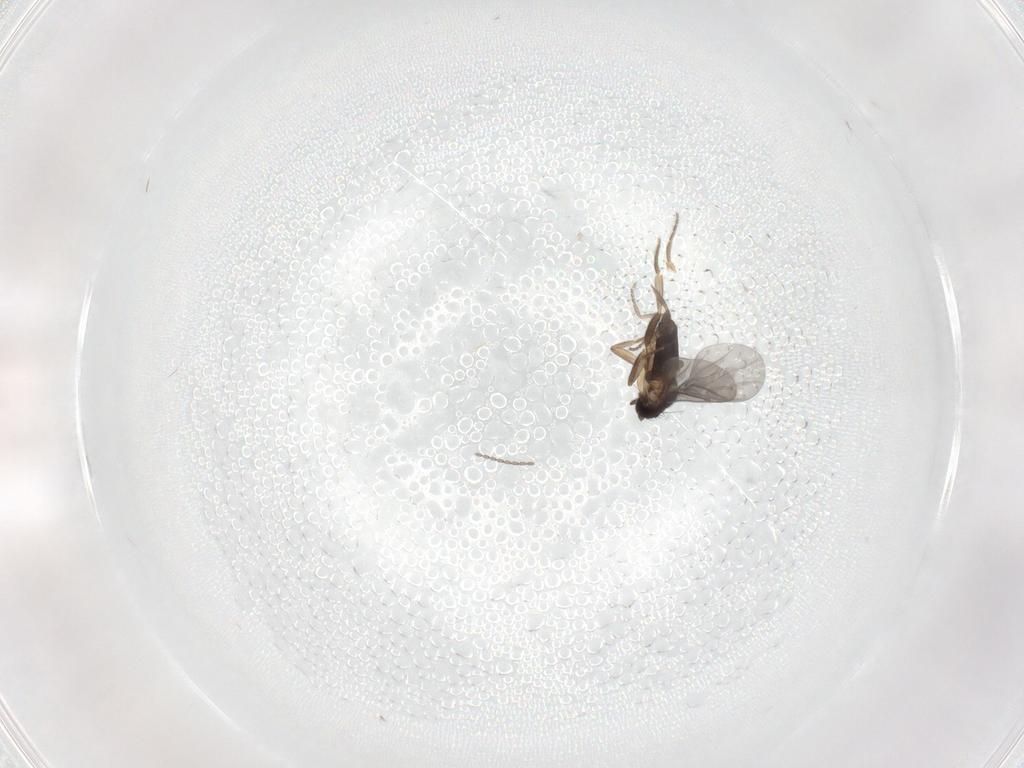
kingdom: Animalia
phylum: Arthropoda
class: Insecta
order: Diptera
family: Sciaridae
